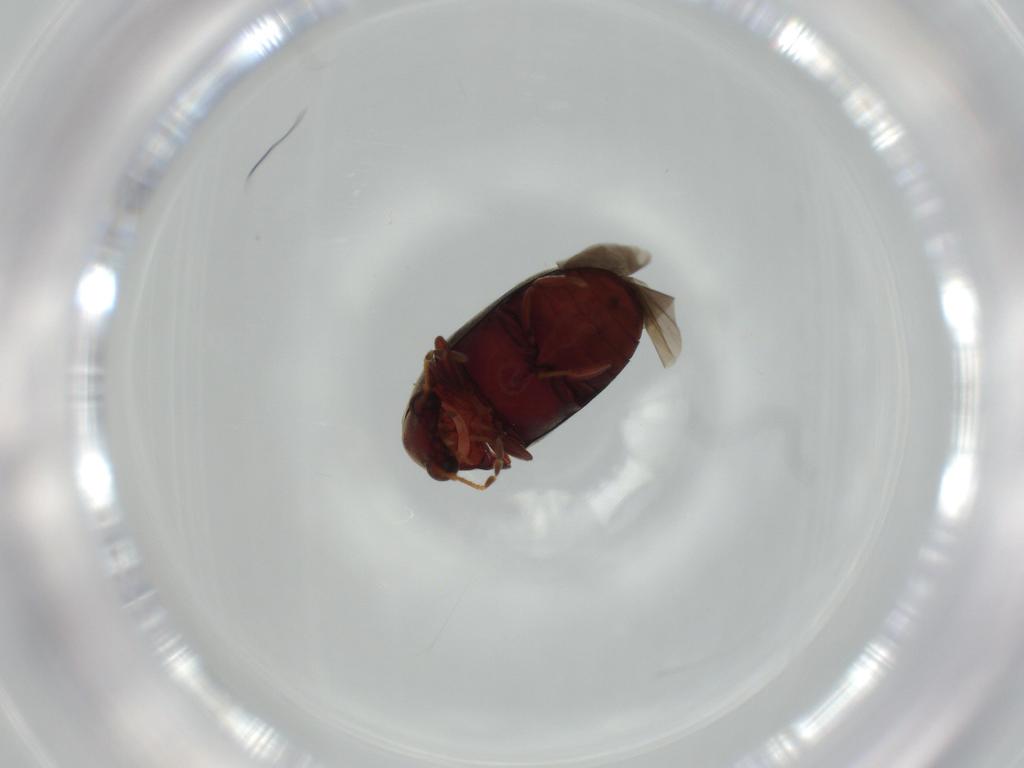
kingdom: Animalia
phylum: Arthropoda
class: Insecta
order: Coleoptera
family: Ptinidae
